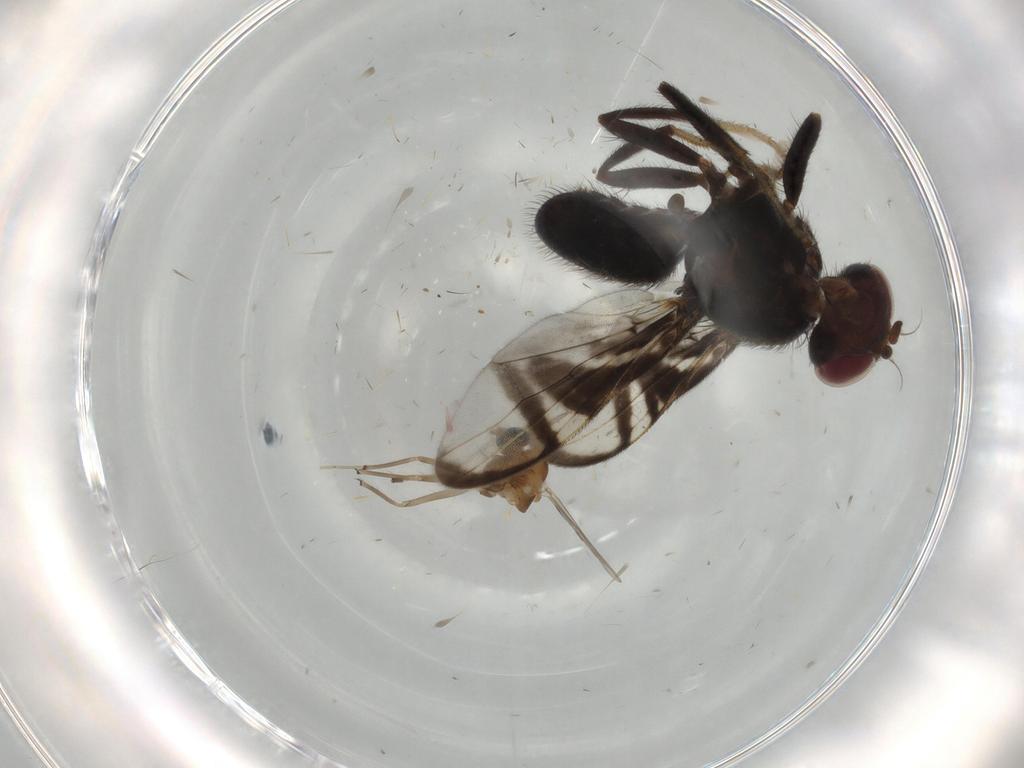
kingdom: Animalia
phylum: Arthropoda
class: Insecta
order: Diptera
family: Chironomidae
